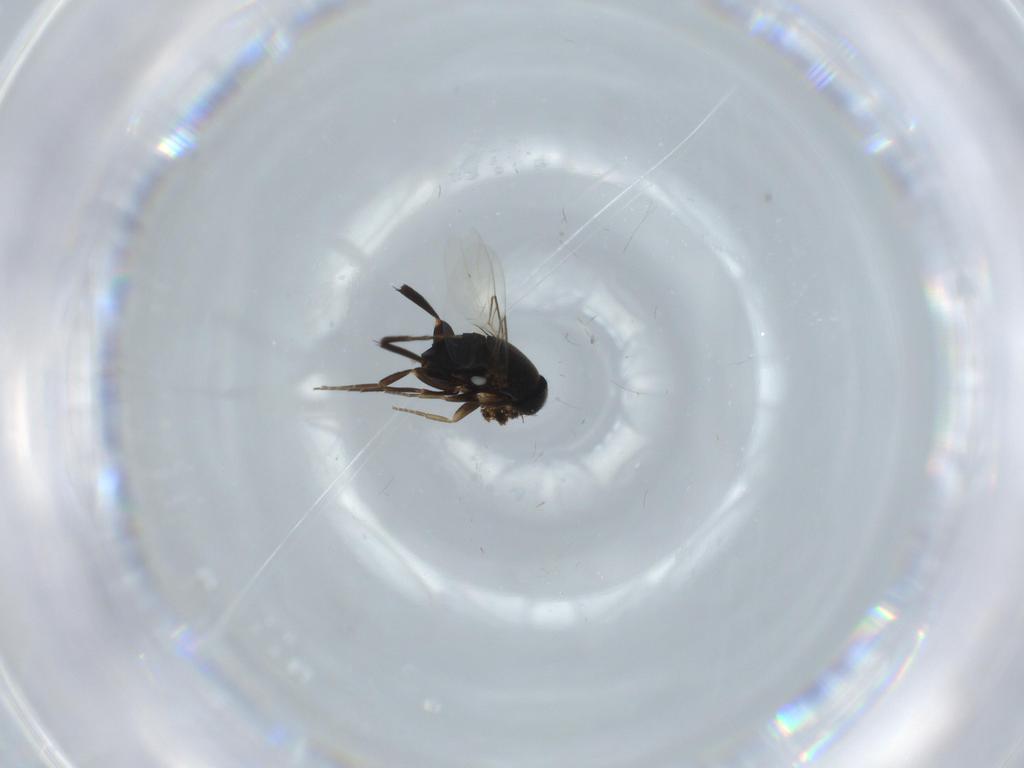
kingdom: Animalia
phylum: Arthropoda
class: Insecta
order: Diptera
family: Phoridae
